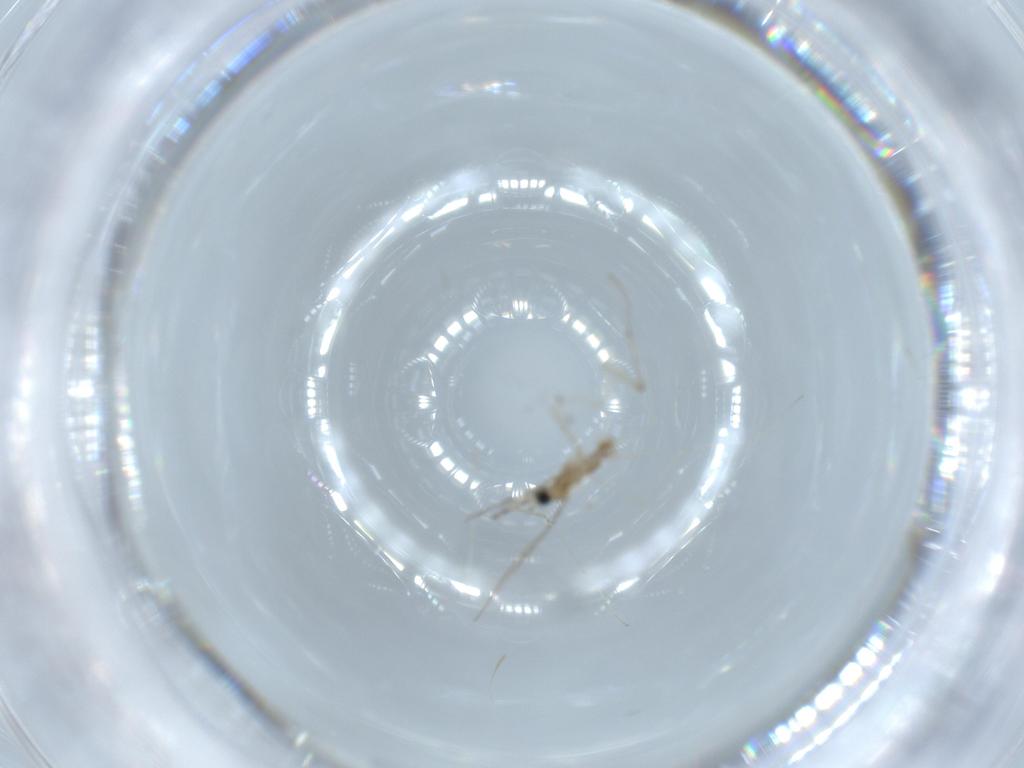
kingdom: Animalia
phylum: Arthropoda
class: Insecta
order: Diptera
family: Cecidomyiidae
